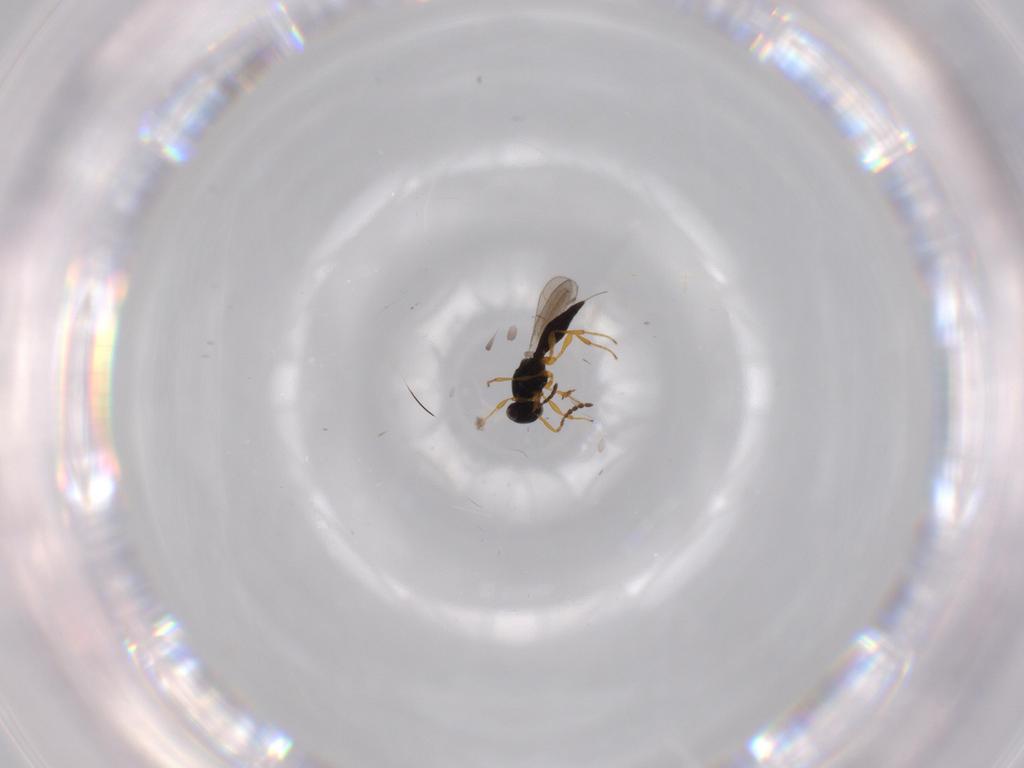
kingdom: Animalia
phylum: Arthropoda
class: Insecta
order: Hymenoptera
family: Platygastridae
